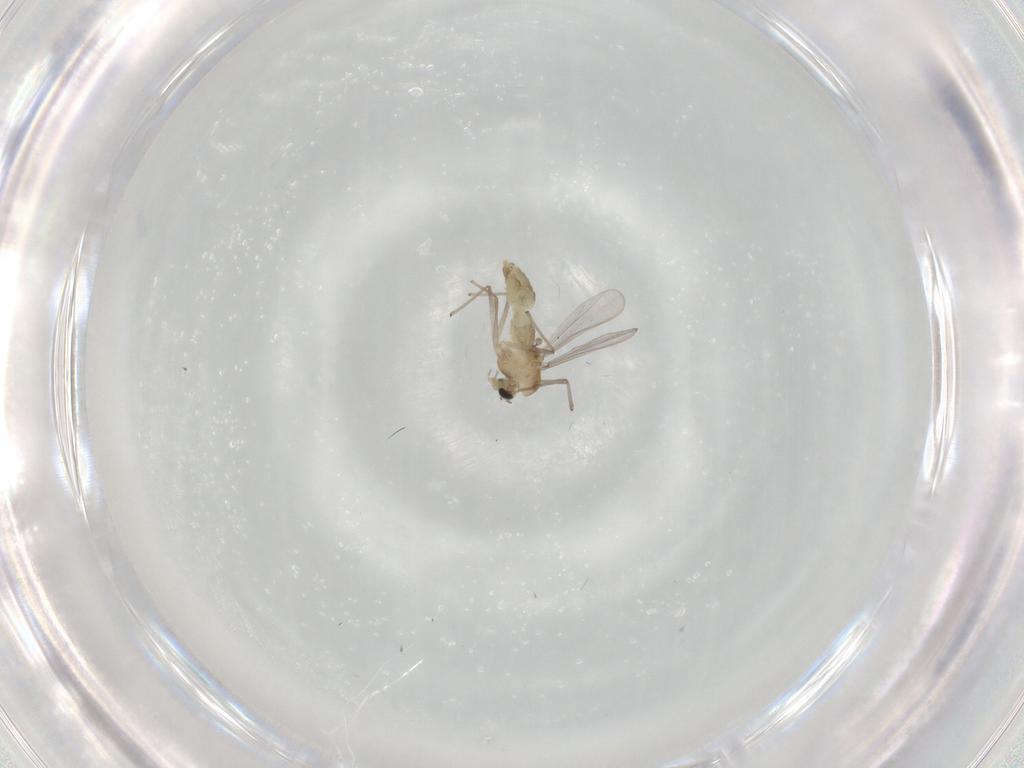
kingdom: Animalia
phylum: Arthropoda
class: Insecta
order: Diptera
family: Chironomidae
